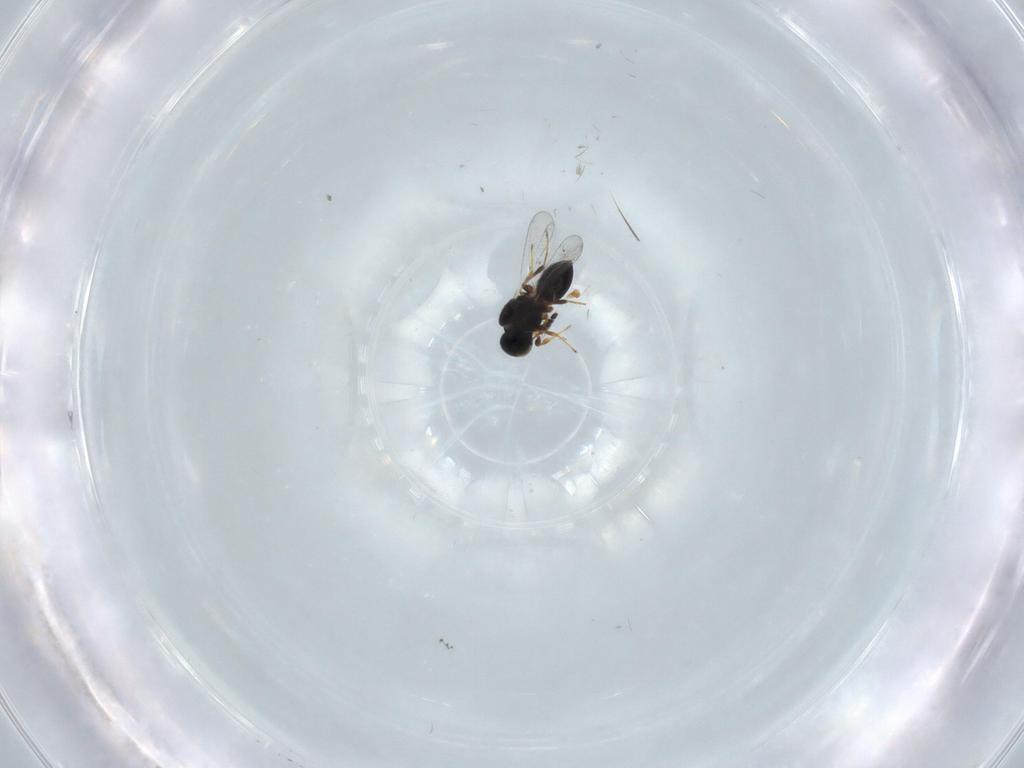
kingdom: Animalia
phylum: Arthropoda
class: Insecta
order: Hymenoptera
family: Platygastridae
